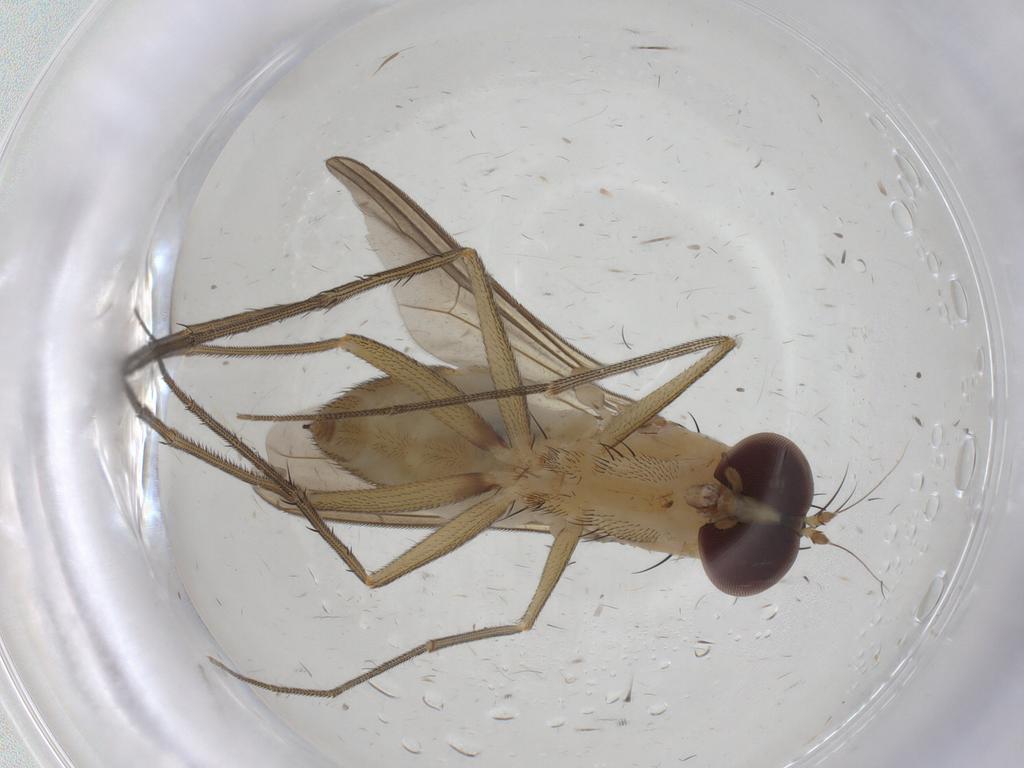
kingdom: Animalia
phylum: Arthropoda
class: Insecta
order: Diptera
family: Dolichopodidae
